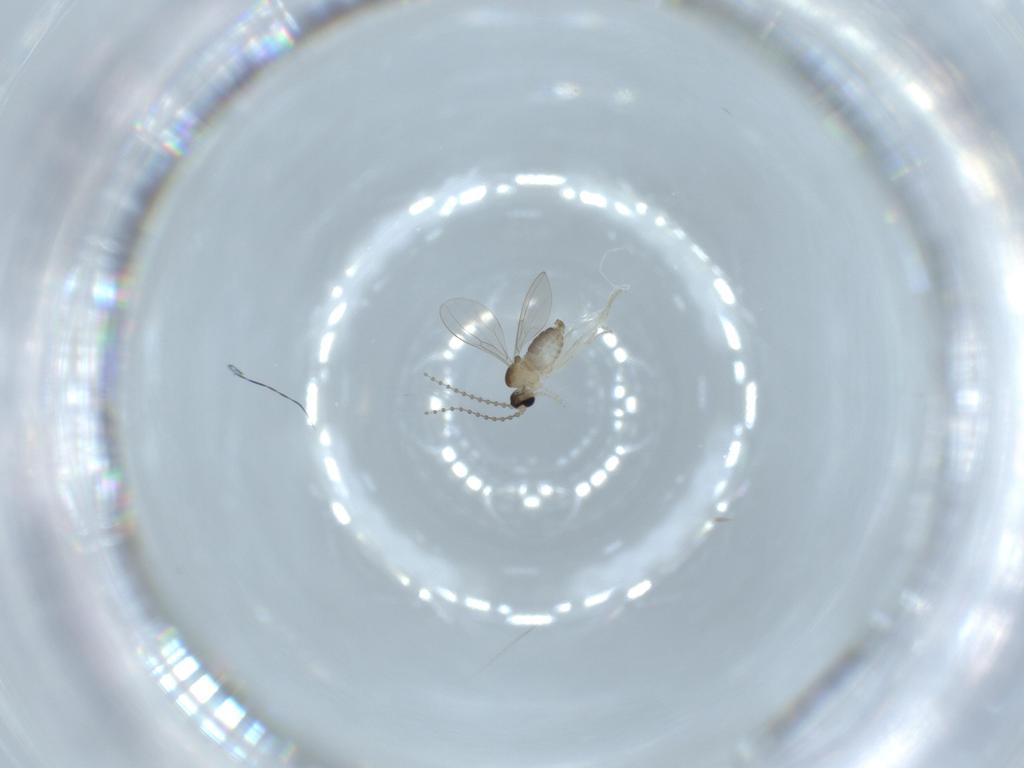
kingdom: Animalia
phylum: Arthropoda
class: Insecta
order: Diptera
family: Cecidomyiidae
